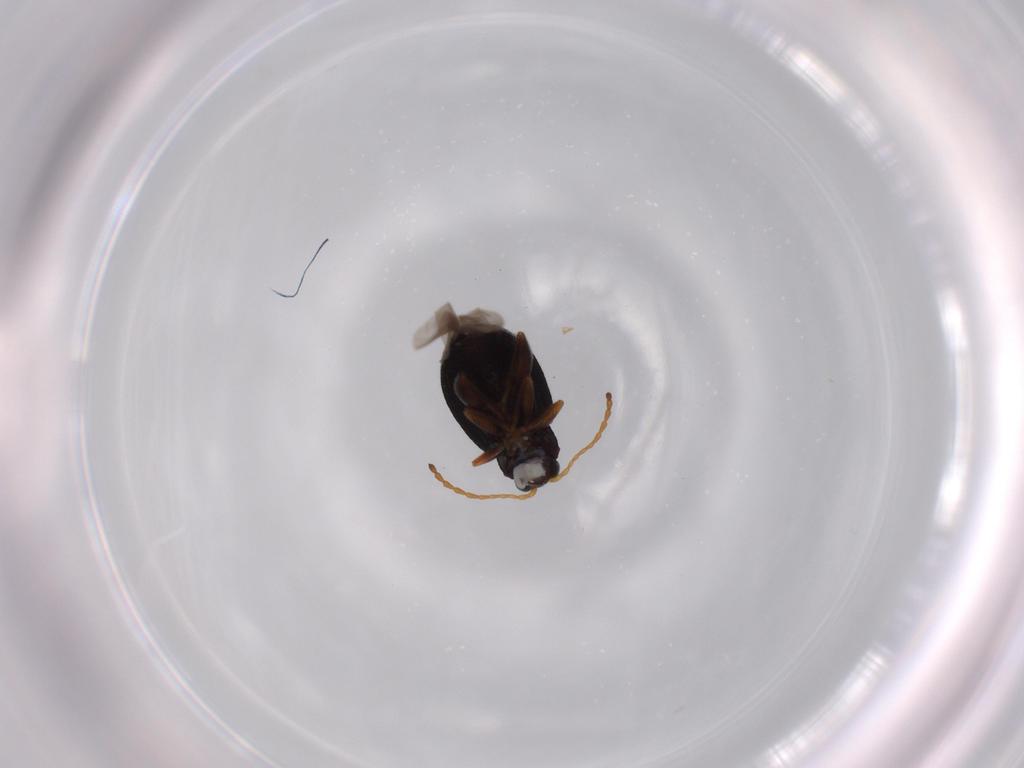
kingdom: Animalia
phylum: Arthropoda
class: Insecta
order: Coleoptera
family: Chrysomelidae
